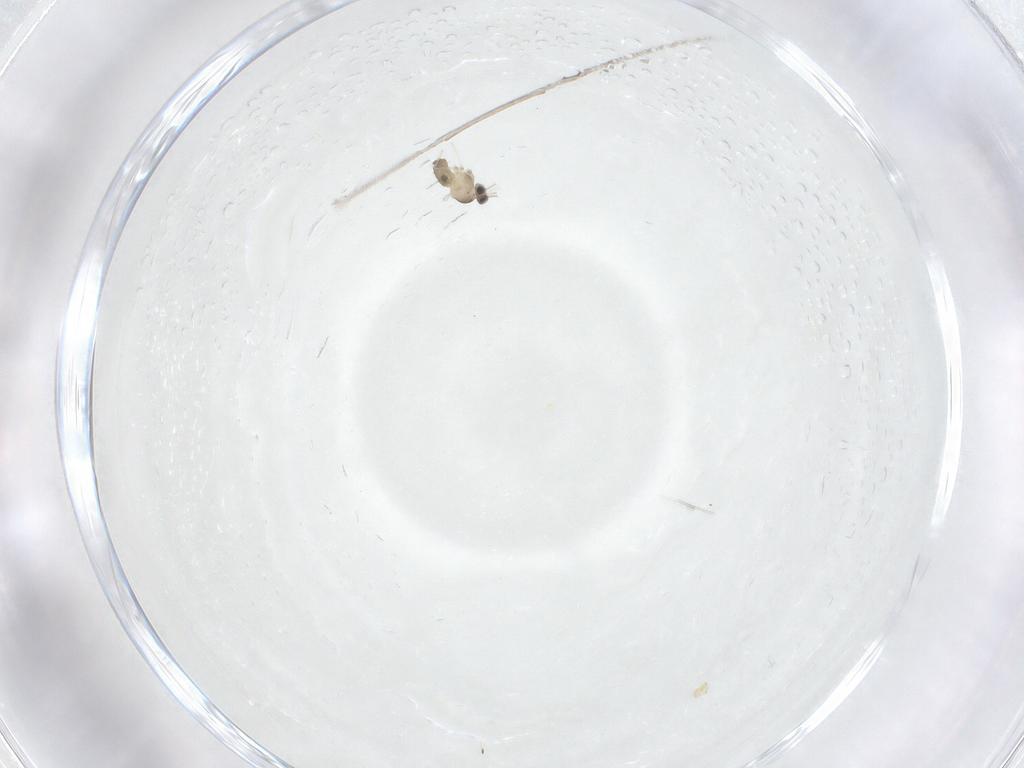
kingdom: Animalia
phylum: Arthropoda
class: Insecta
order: Diptera
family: Cecidomyiidae
